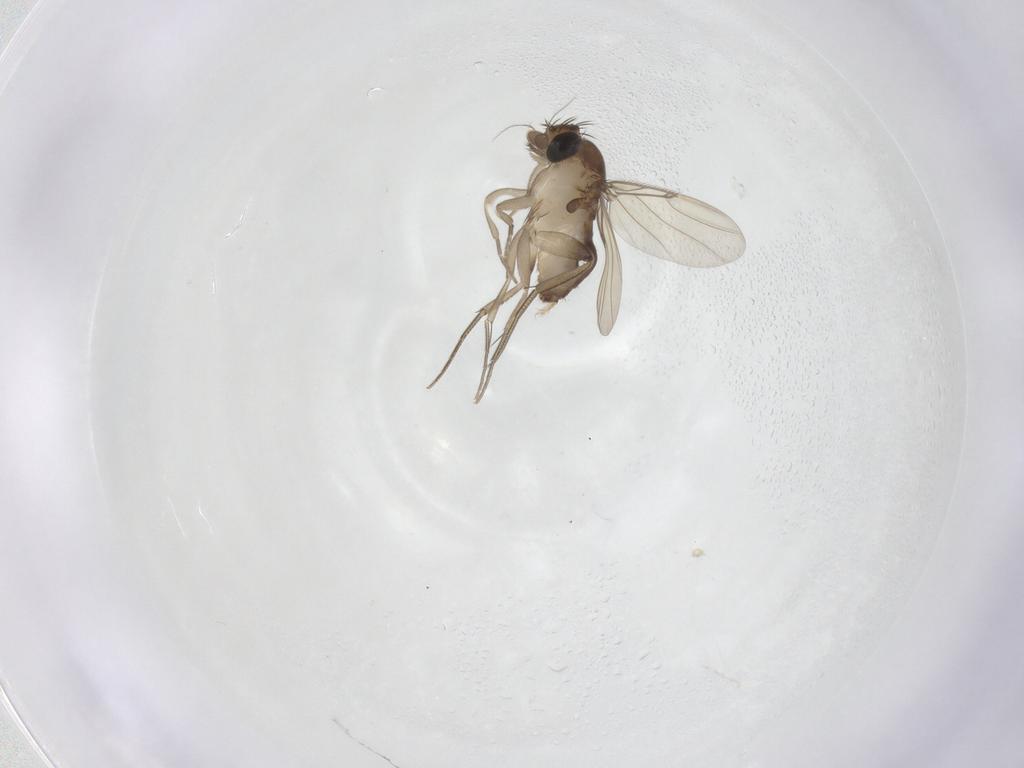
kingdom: Animalia
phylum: Arthropoda
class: Insecta
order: Diptera
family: Phoridae
